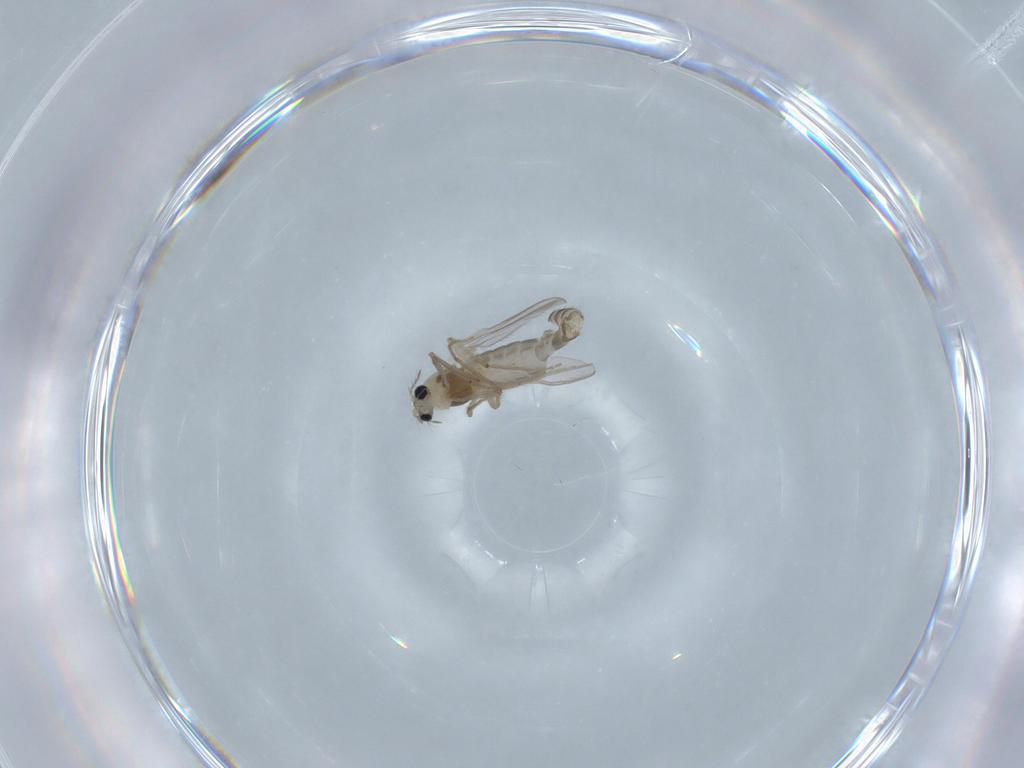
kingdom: Animalia
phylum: Arthropoda
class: Insecta
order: Diptera
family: Chironomidae
